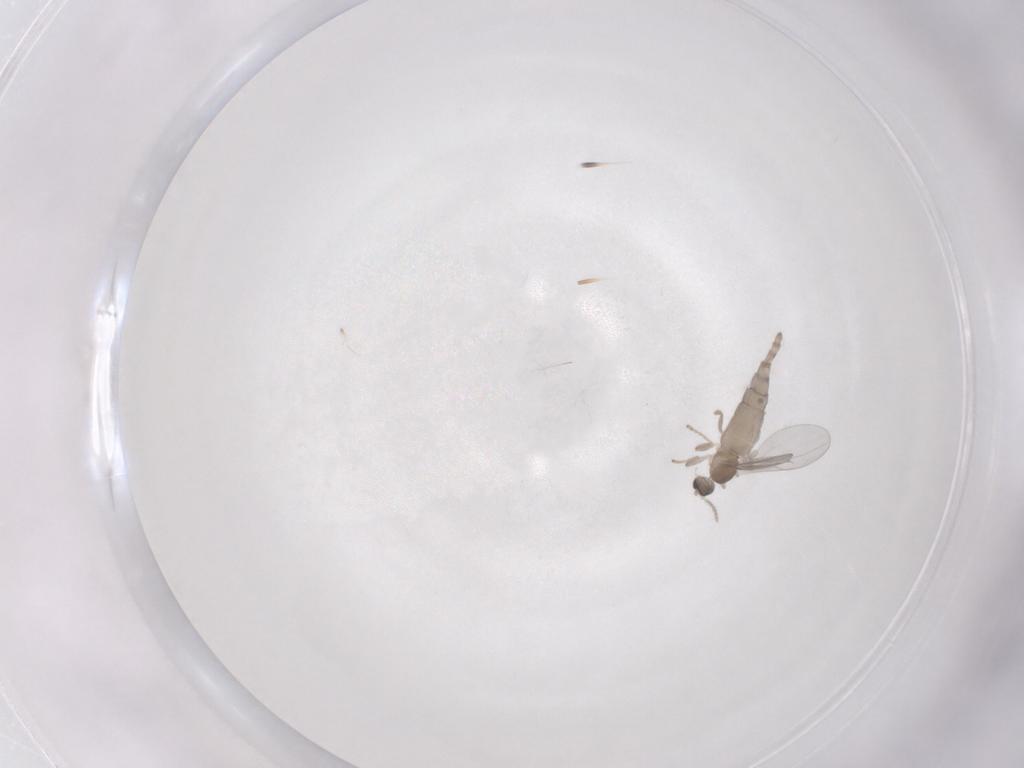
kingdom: Animalia
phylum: Arthropoda
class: Insecta
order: Diptera
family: Cecidomyiidae
